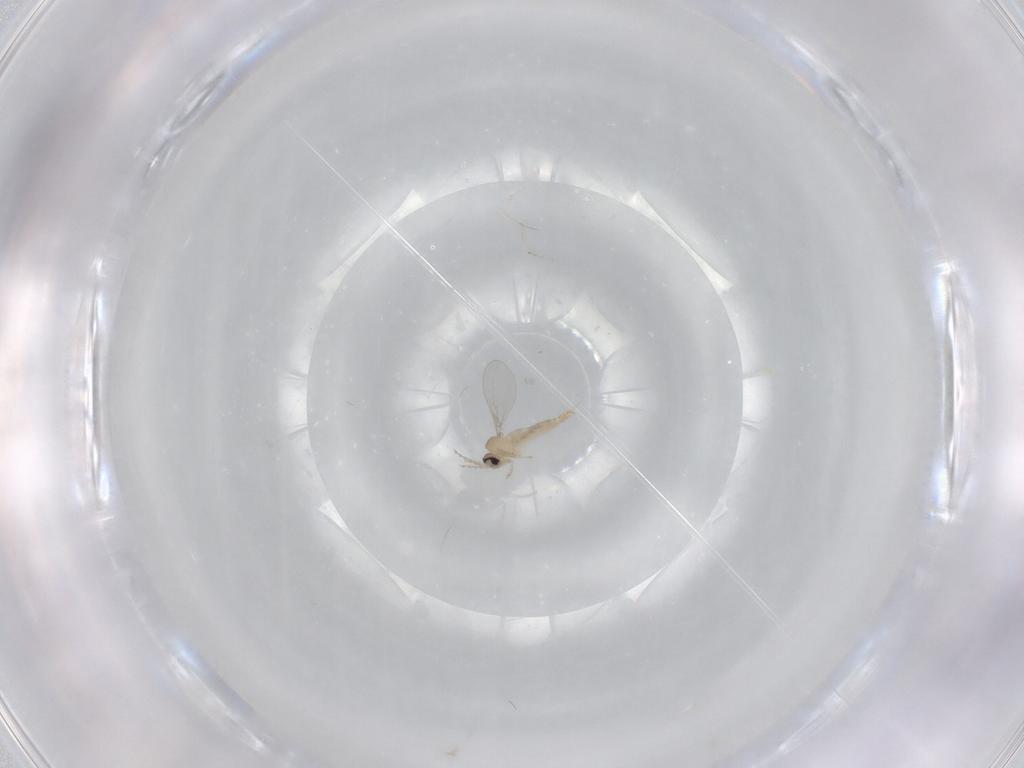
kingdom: Animalia
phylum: Arthropoda
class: Insecta
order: Diptera
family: Cecidomyiidae
